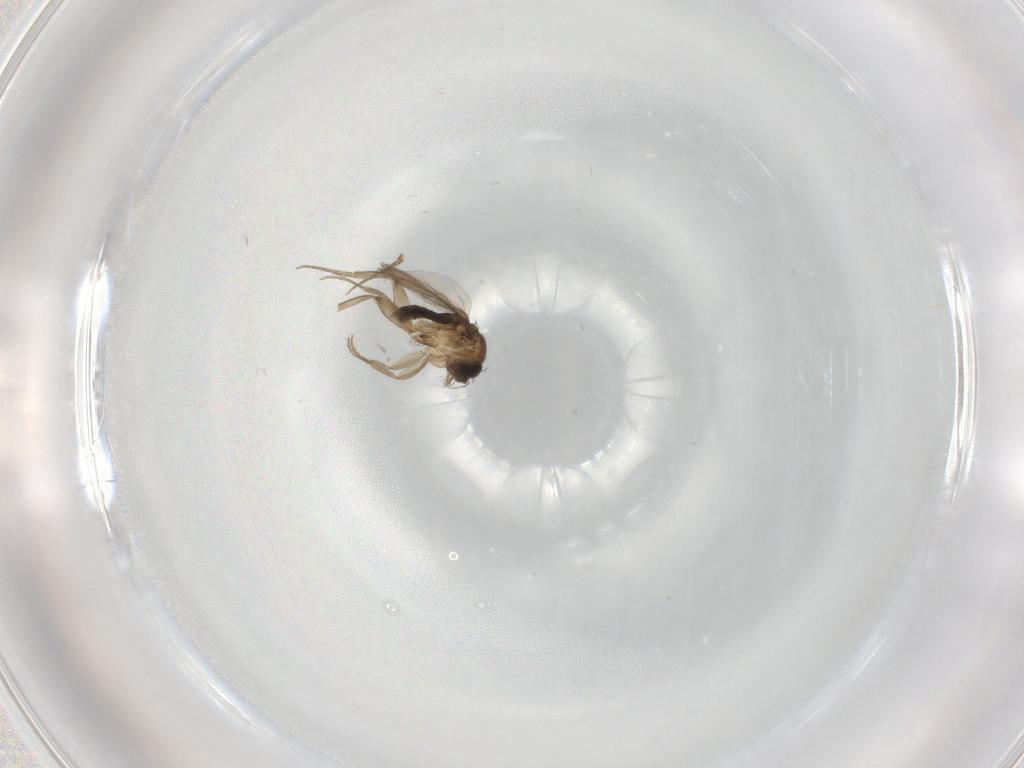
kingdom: Animalia
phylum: Arthropoda
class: Insecta
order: Diptera
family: Phoridae
